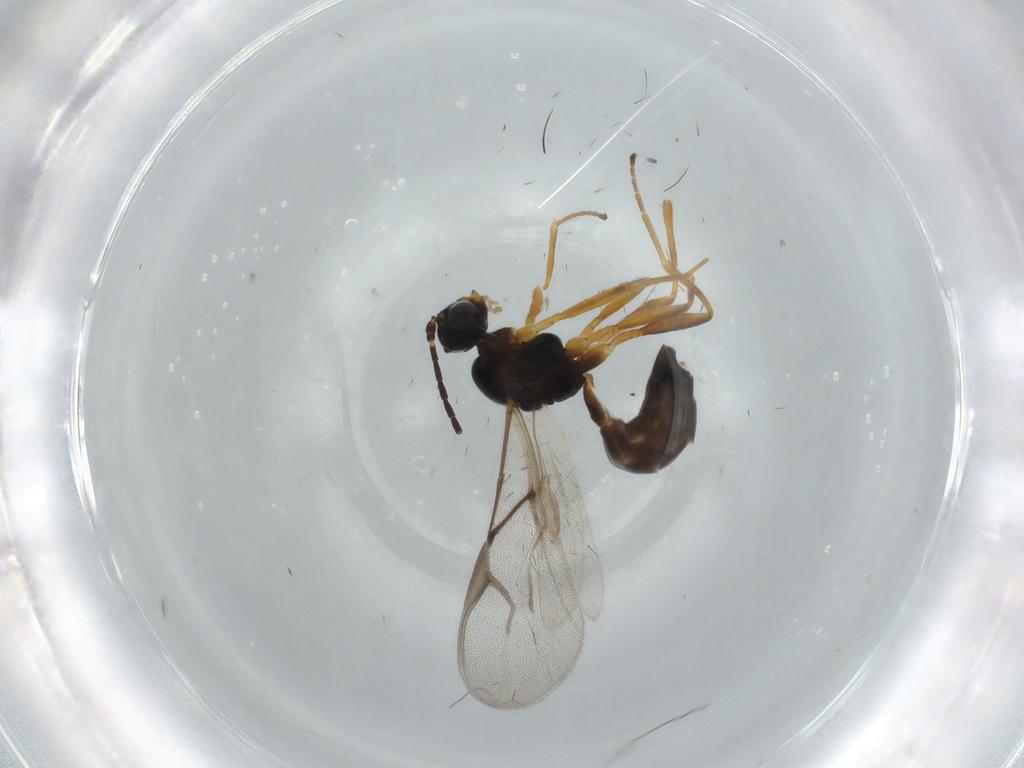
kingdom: Animalia
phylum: Arthropoda
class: Insecta
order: Hymenoptera
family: Braconidae
